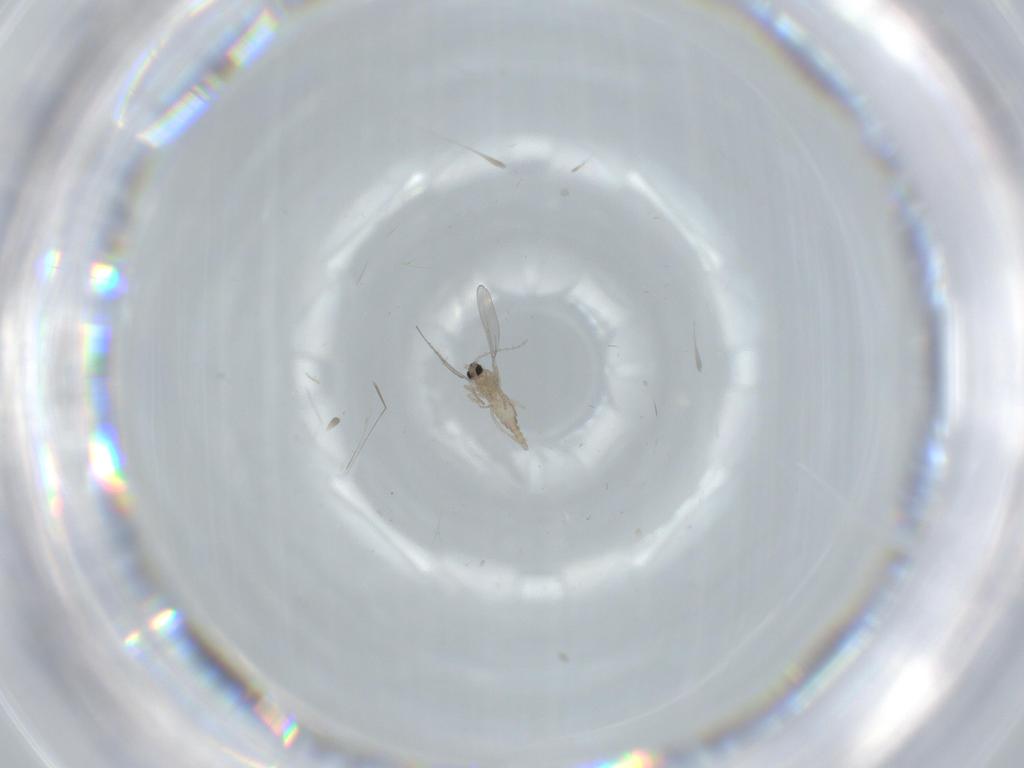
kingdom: Animalia
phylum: Arthropoda
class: Insecta
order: Diptera
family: Cecidomyiidae
